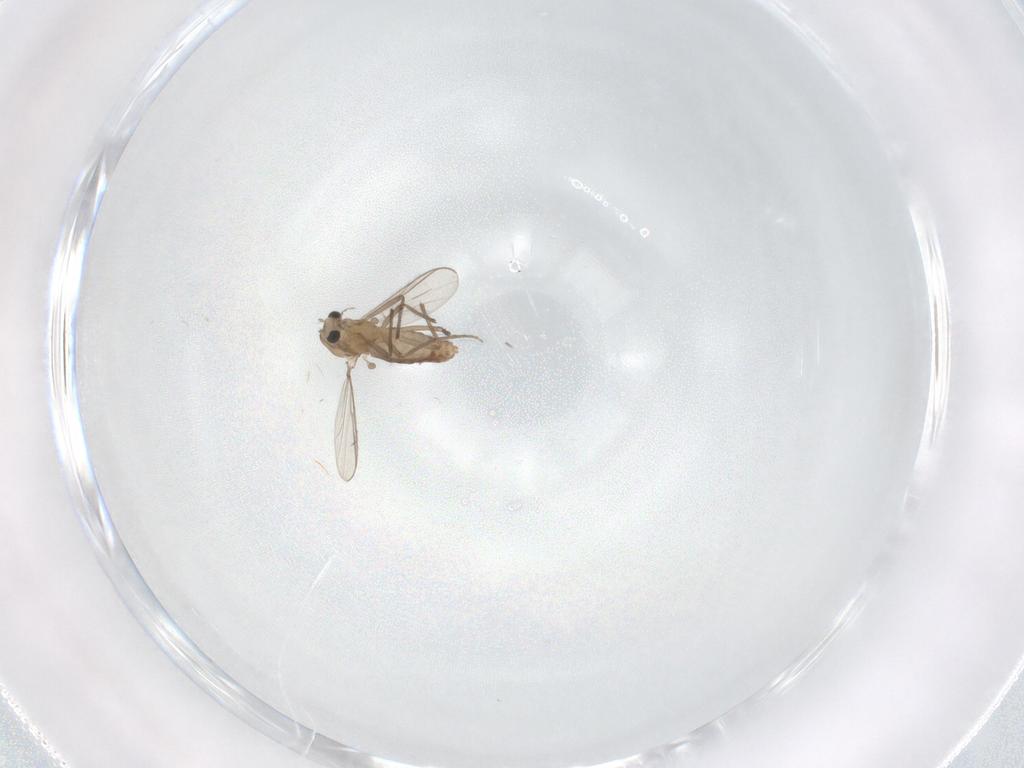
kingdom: Animalia
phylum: Arthropoda
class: Insecta
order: Diptera
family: Chironomidae
